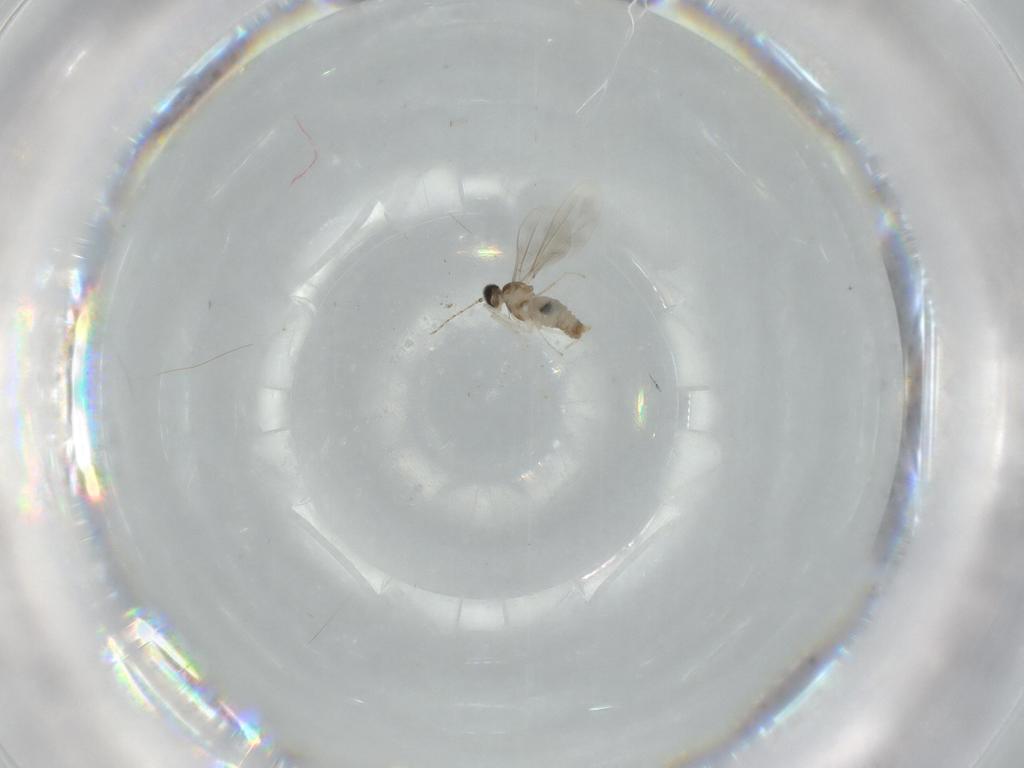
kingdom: Animalia
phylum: Arthropoda
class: Insecta
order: Diptera
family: Cecidomyiidae
